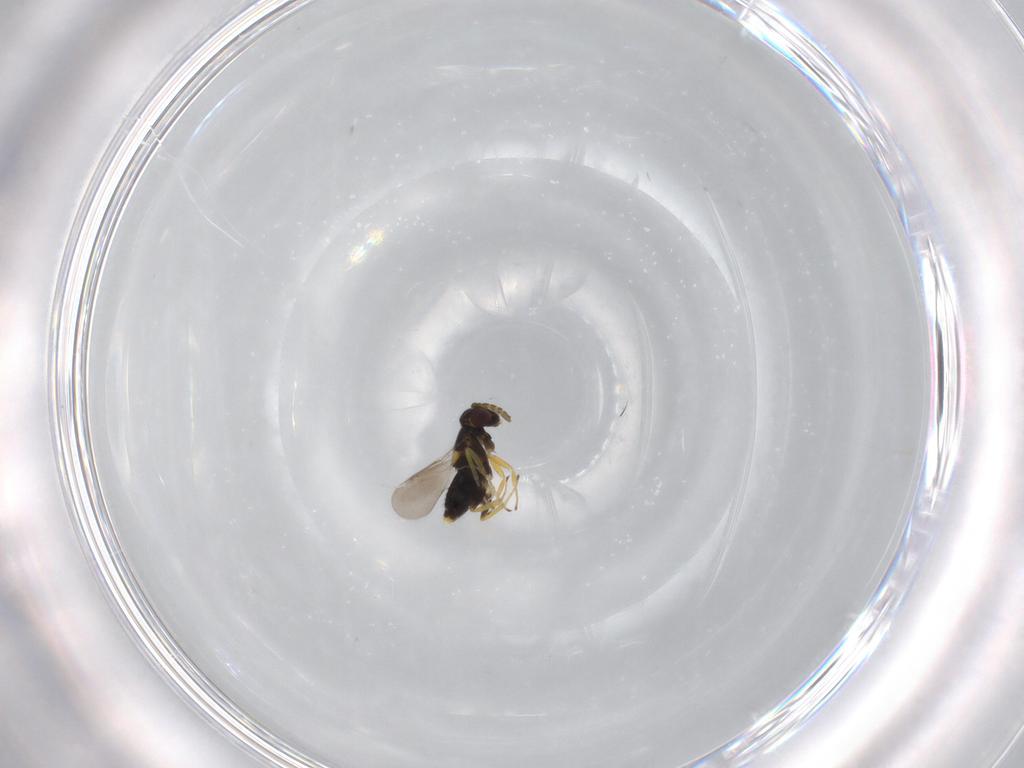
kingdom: Animalia
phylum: Arthropoda
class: Insecta
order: Hymenoptera
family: Aphelinidae
